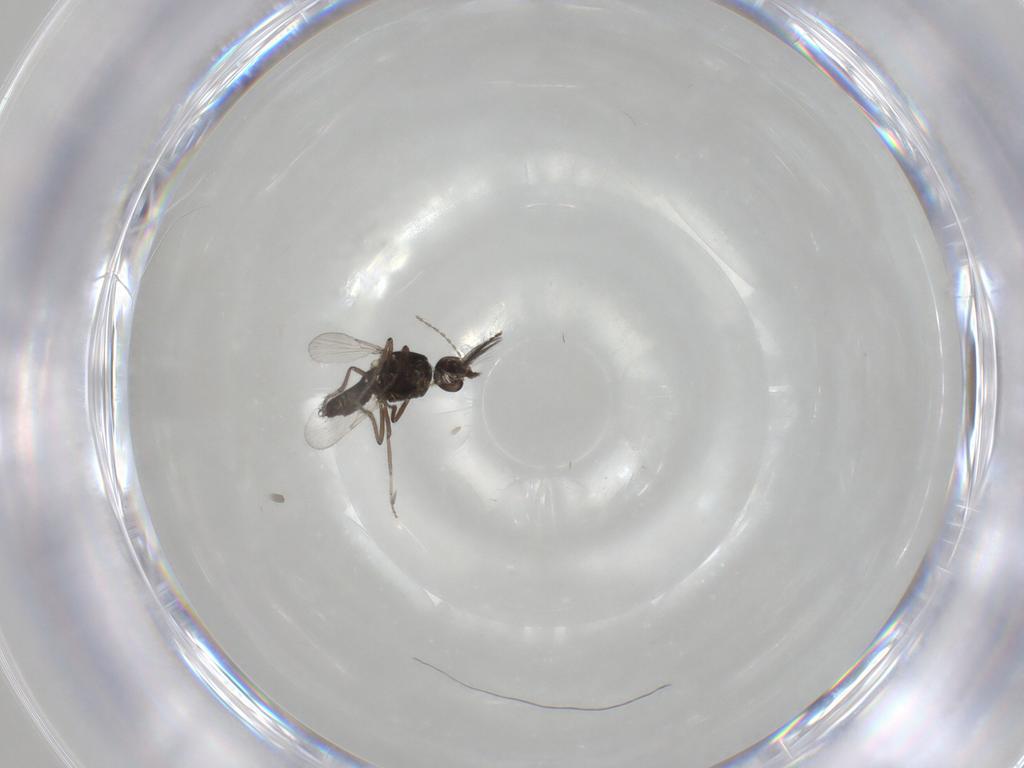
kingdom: Animalia
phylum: Arthropoda
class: Insecta
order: Diptera
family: Ceratopogonidae
